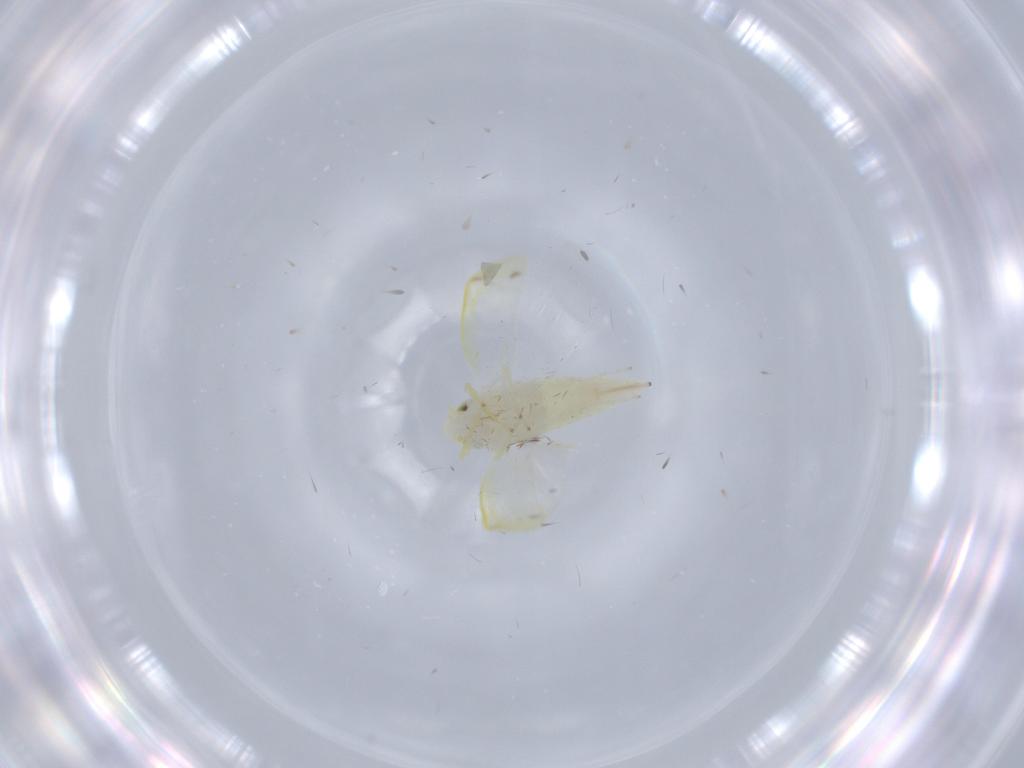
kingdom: Animalia
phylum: Arthropoda
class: Insecta
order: Hemiptera
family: Cicadellidae
